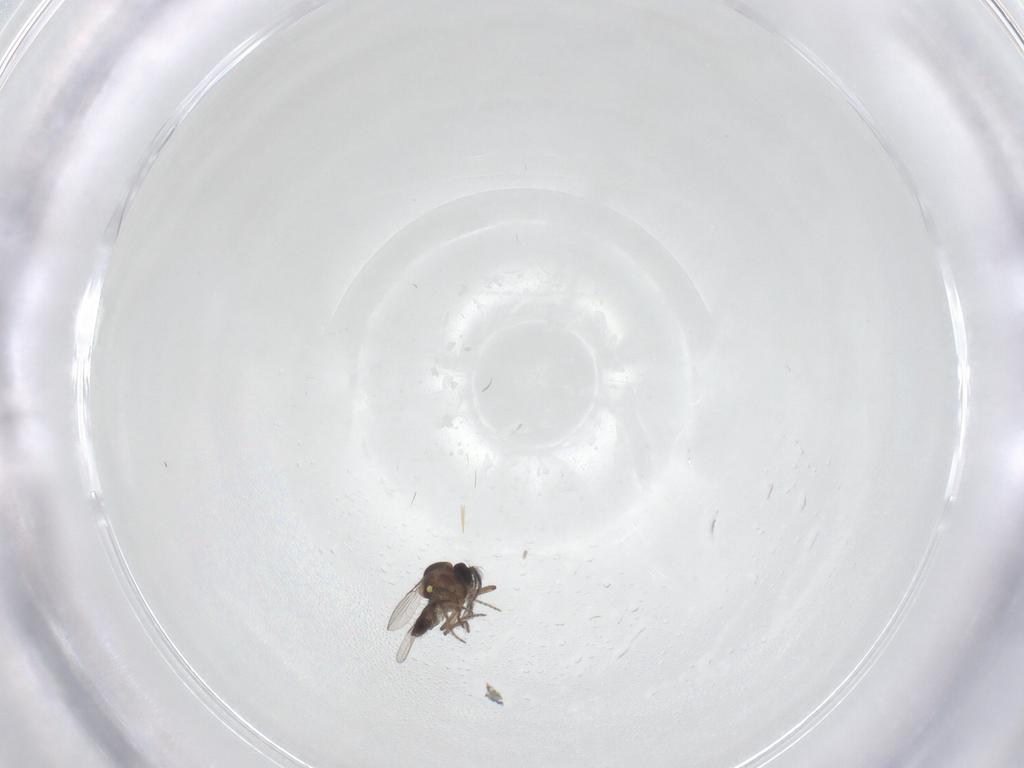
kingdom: Animalia
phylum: Arthropoda
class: Insecta
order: Diptera
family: Ceratopogonidae
